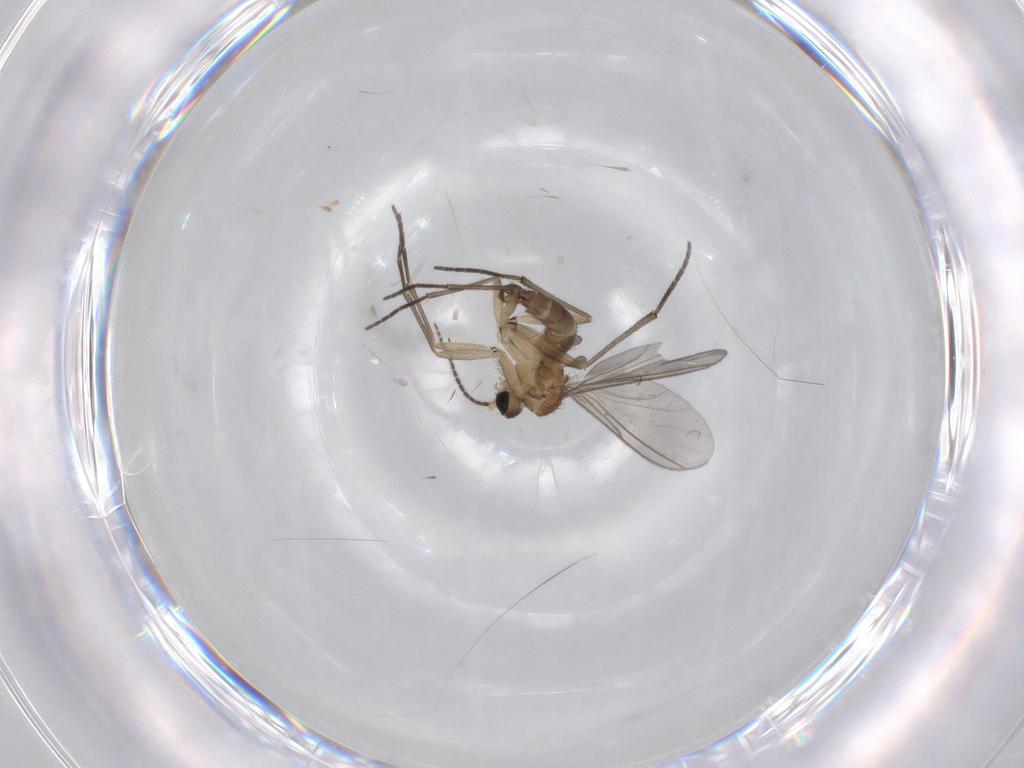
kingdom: Animalia
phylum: Arthropoda
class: Insecta
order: Diptera
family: Sciaridae
